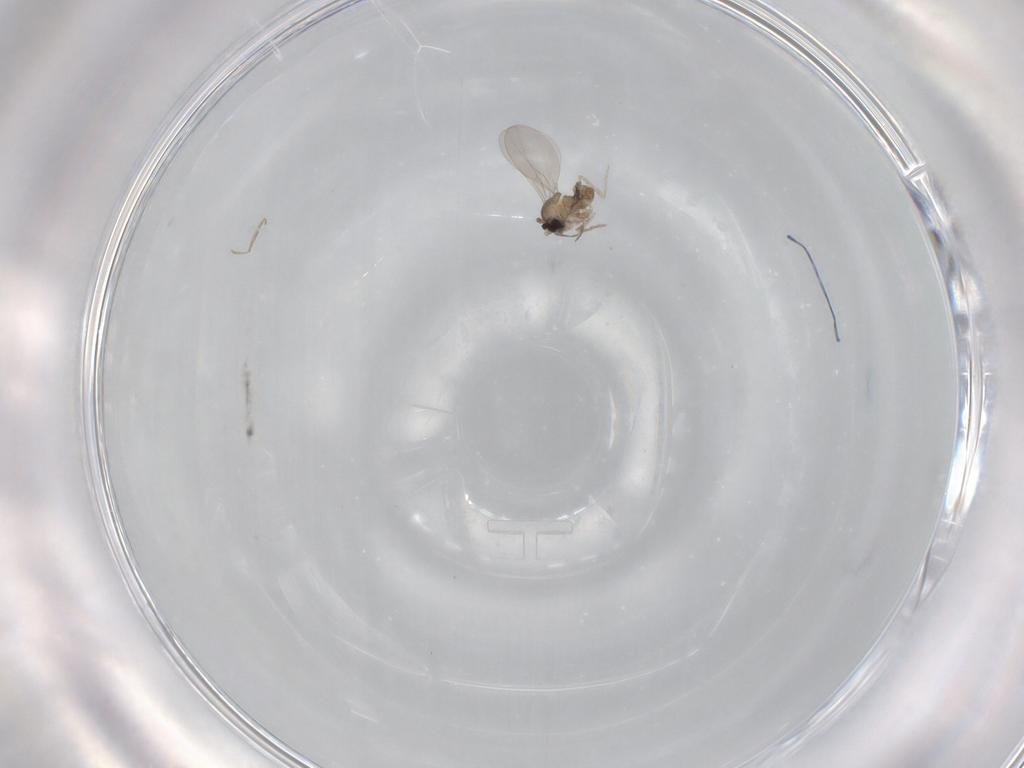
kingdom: Animalia
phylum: Arthropoda
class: Insecta
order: Diptera
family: Cecidomyiidae
